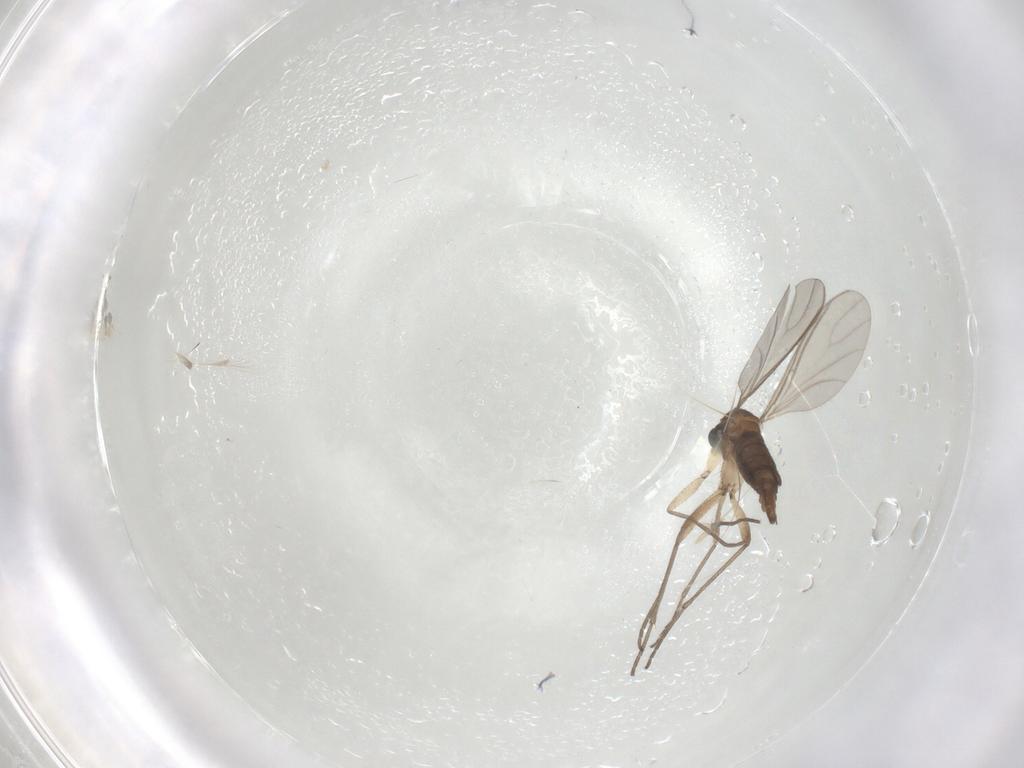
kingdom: Animalia
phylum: Arthropoda
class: Insecta
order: Diptera
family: Sciaridae
